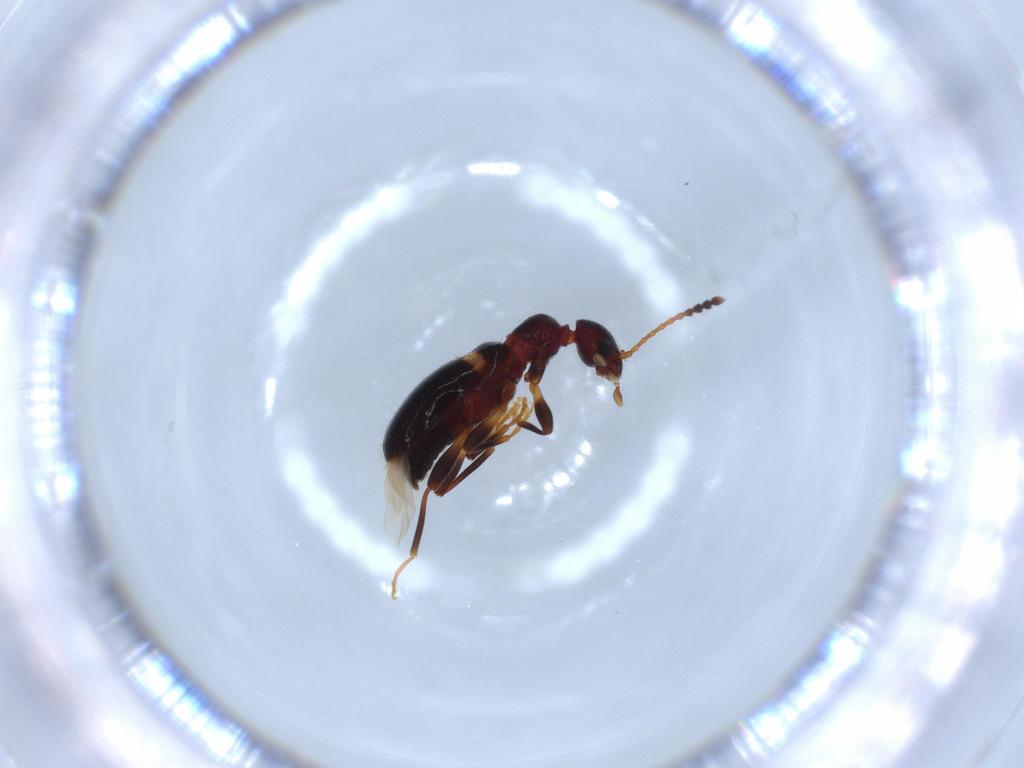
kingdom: Animalia
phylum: Arthropoda
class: Insecta
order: Coleoptera
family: Anthicidae
